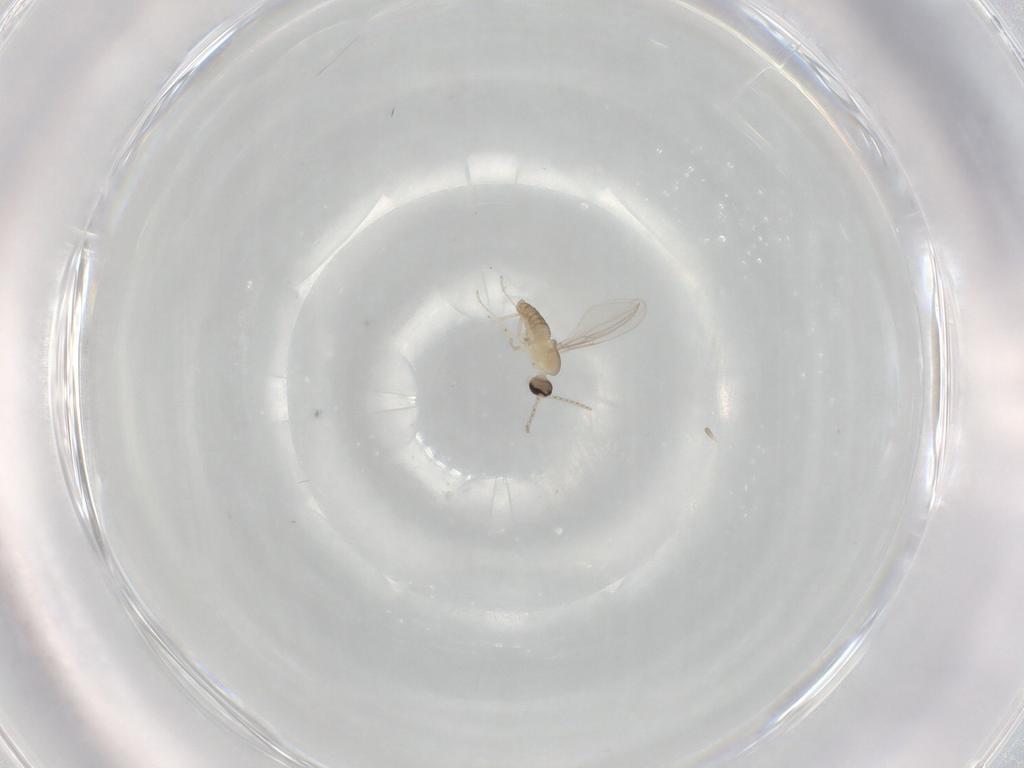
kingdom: Animalia
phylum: Arthropoda
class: Insecta
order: Diptera
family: Cecidomyiidae
